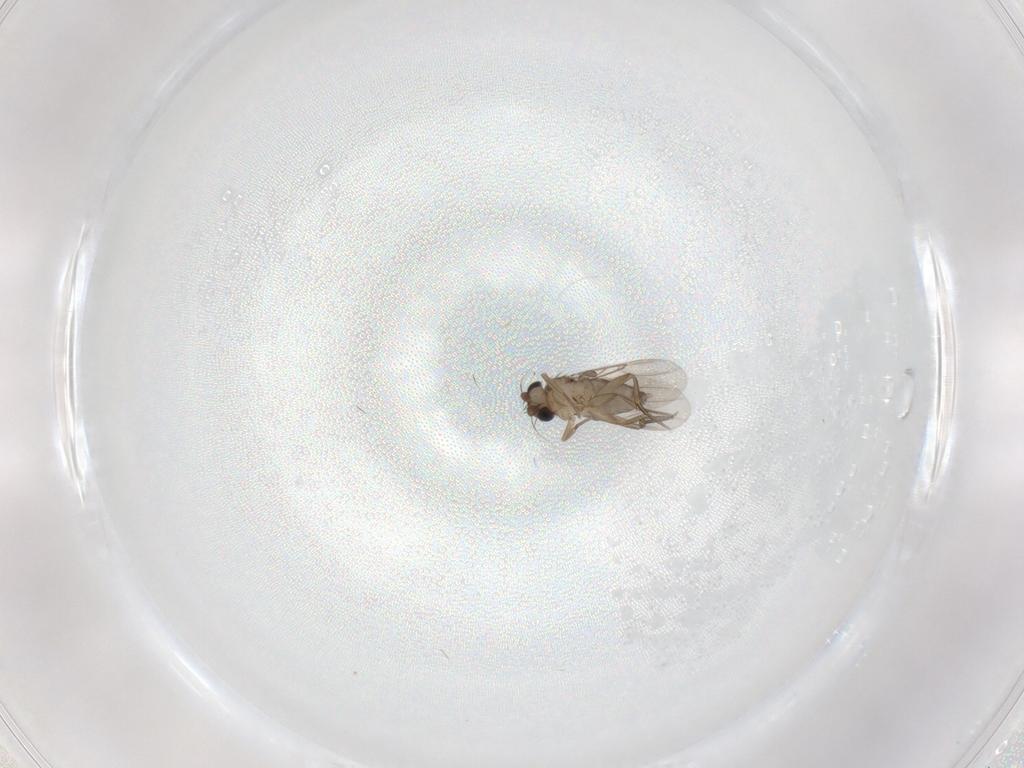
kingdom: Animalia
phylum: Arthropoda
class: Insecta
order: Diptera
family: Phoridae
